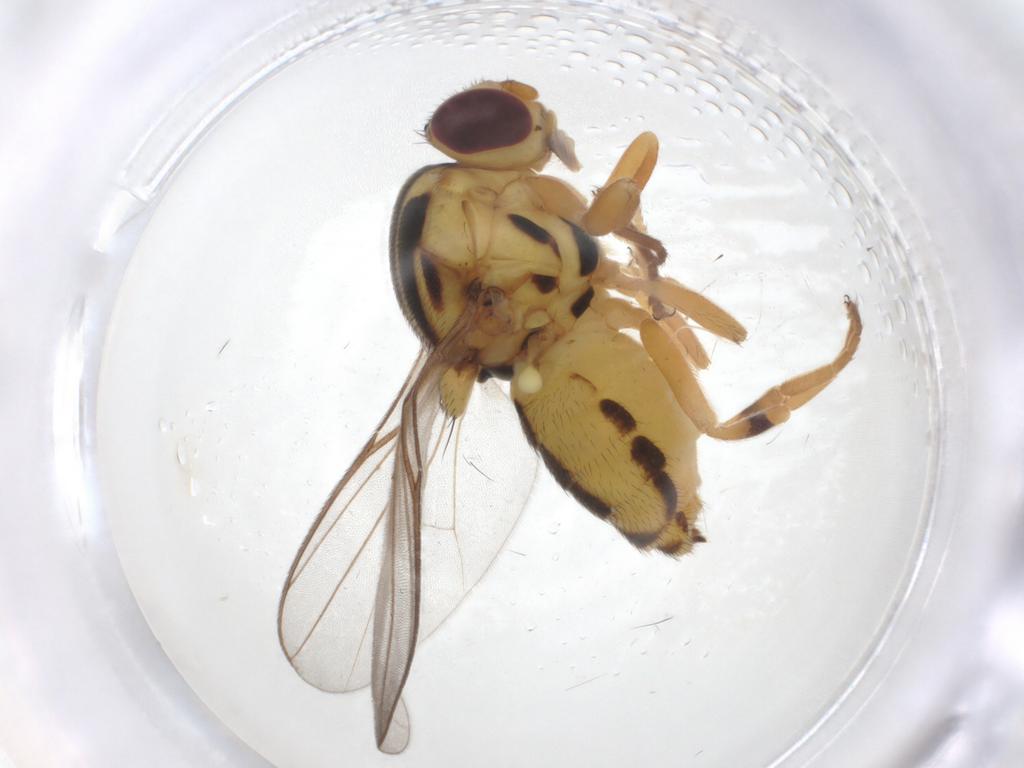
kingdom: Animalia
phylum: Arthropoda
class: Insecta
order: Diptera
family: Chloropidae
